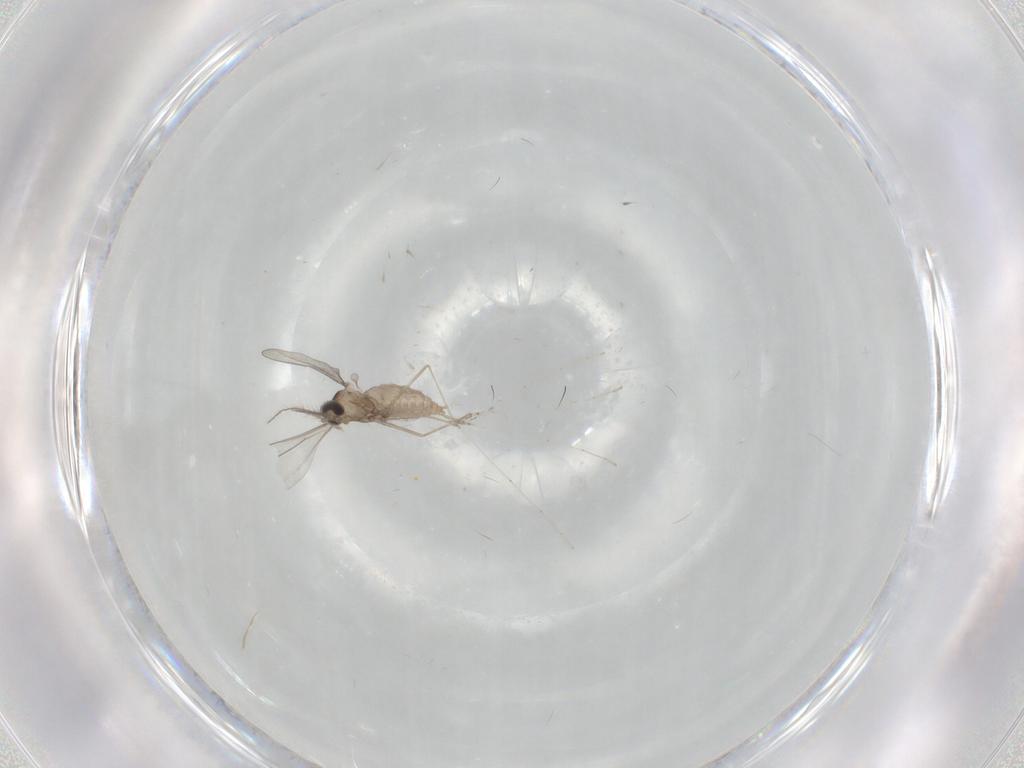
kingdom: Animalia
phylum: Arthropoda
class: Insecta
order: Diptera
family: Cecidomyiidae
